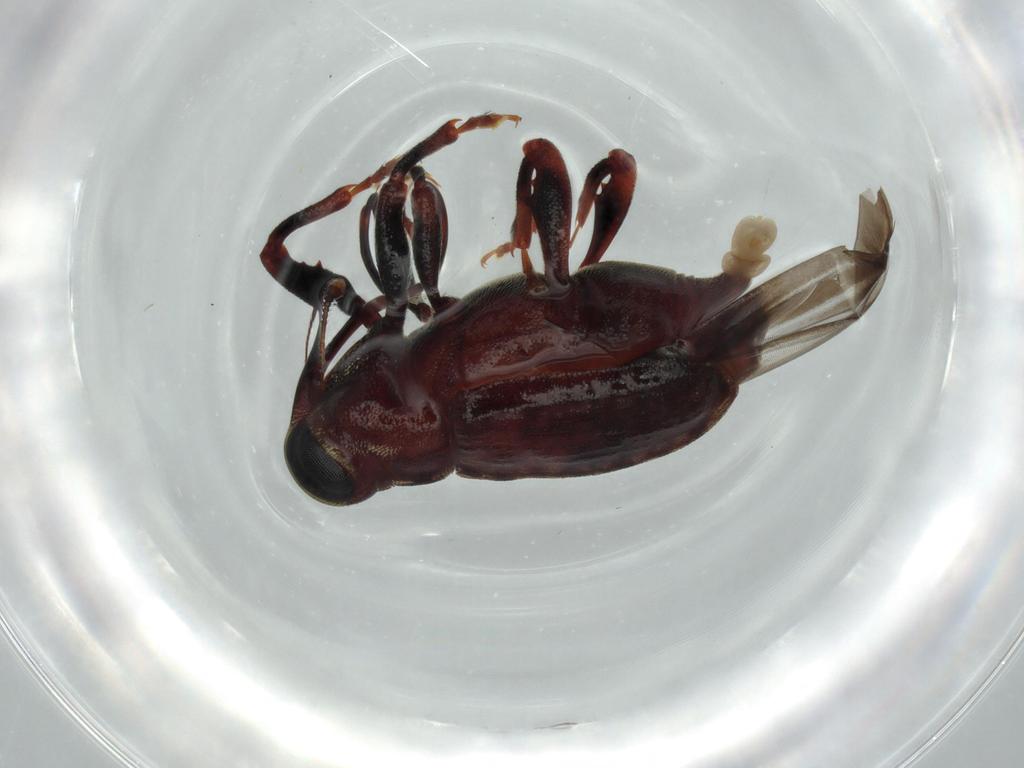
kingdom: Animalia
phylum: Arthropoda
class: Insecta
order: Coleoptera
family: Curculionidae
